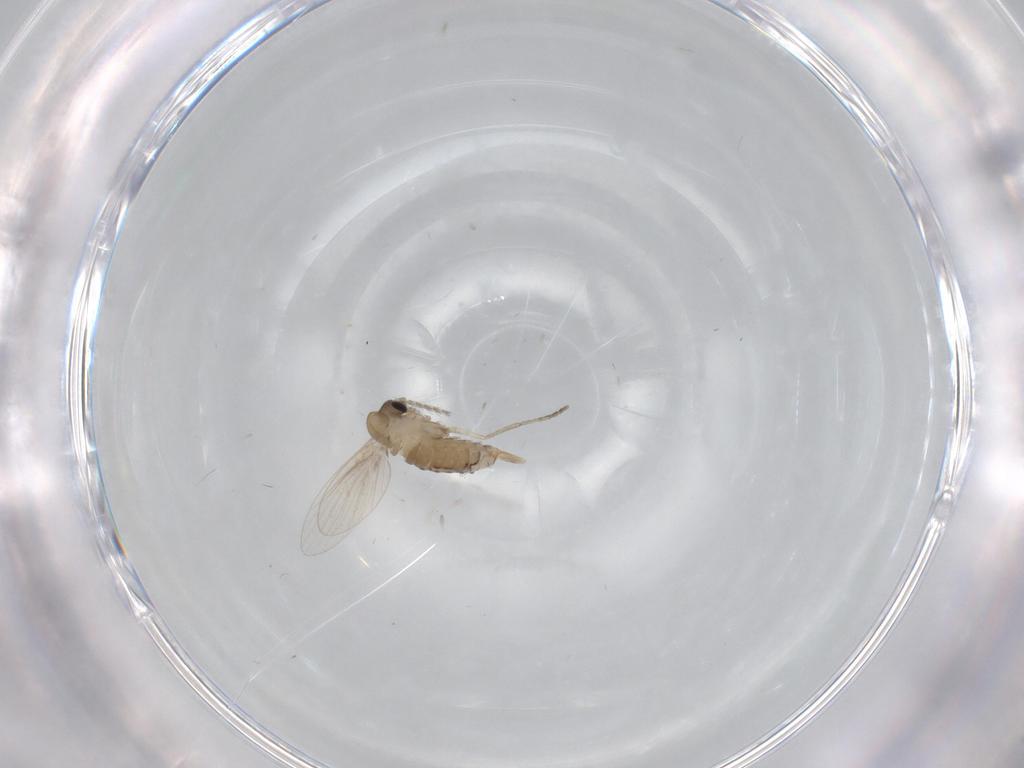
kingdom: Animalia
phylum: Arthropoda
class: Insecta
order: Diptera
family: Psychodidae
